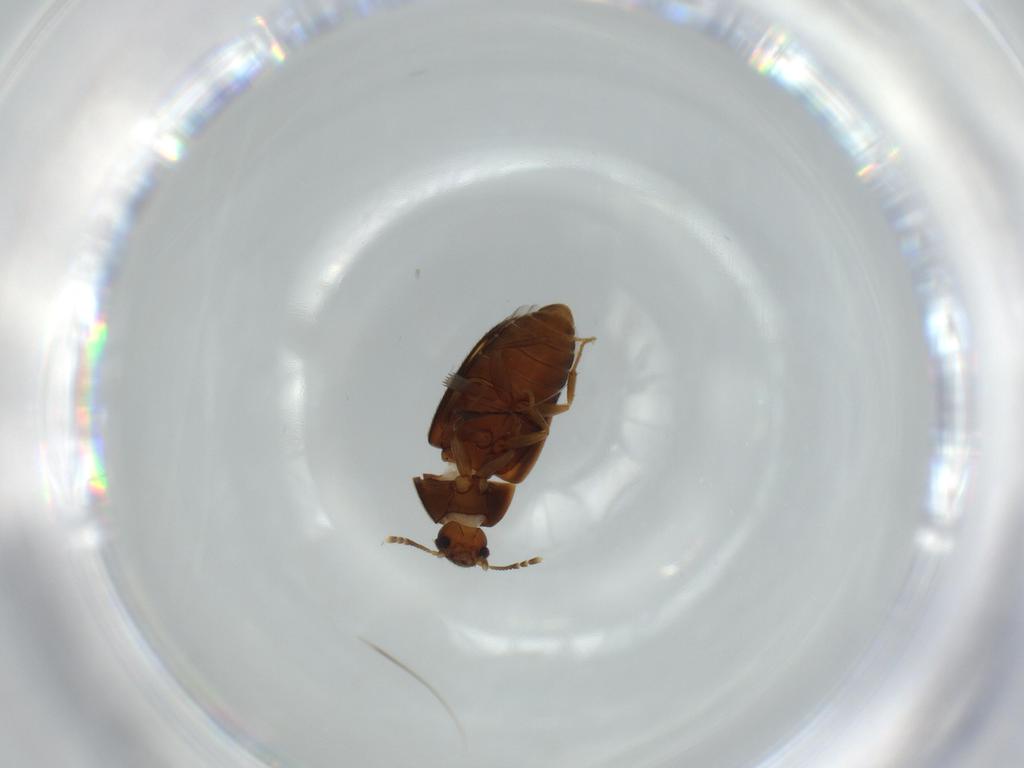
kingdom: Animalia
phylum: Arthropoda
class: Insecta
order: Coleoptera
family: Mycetophagidae
